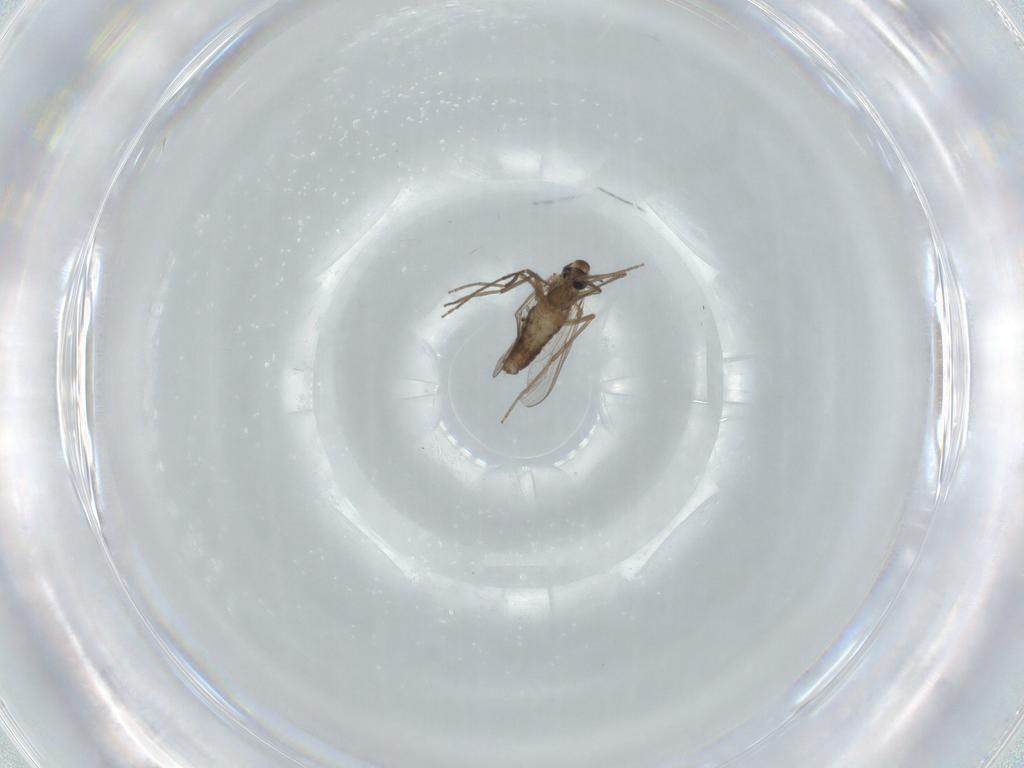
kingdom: Animalia
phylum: Arthropoda
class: Insecta
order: Diptera
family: Chironomidae
